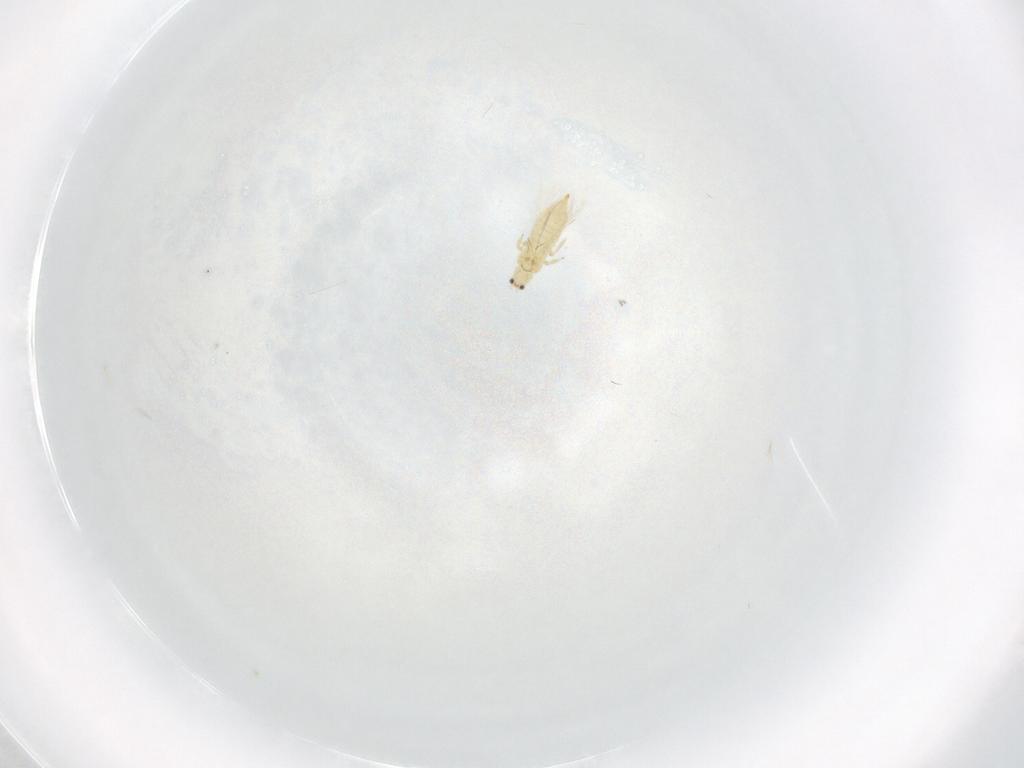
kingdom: Animalia
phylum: Arthropoda
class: Insecta
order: Thysanoptera
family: Thripidae
